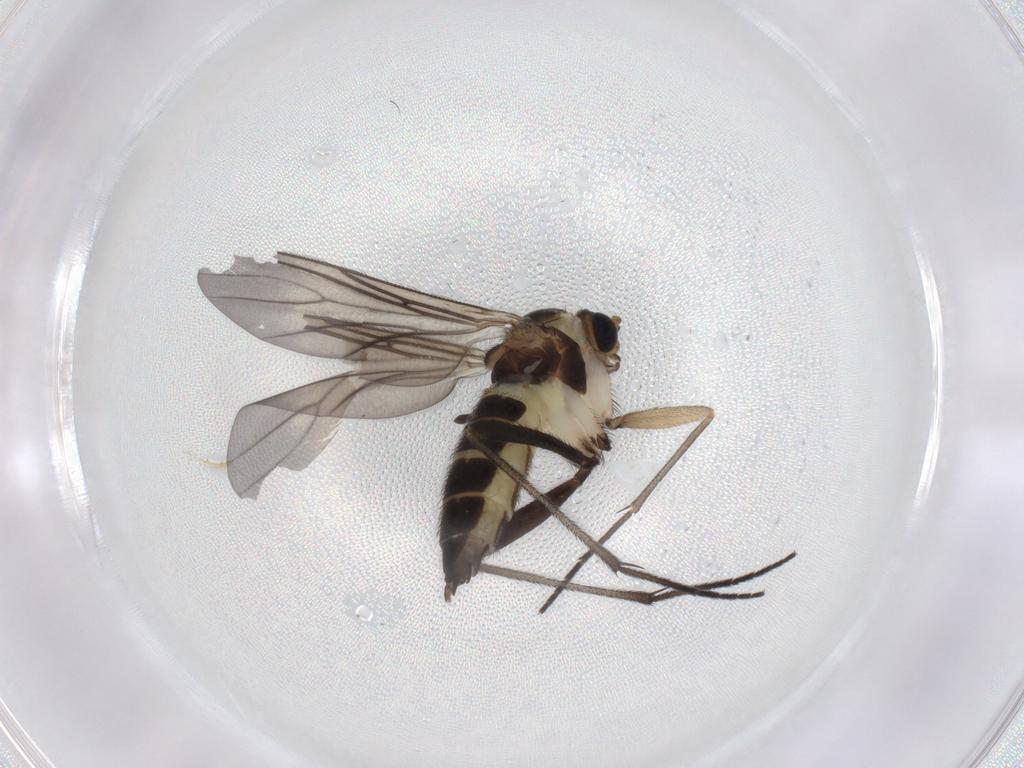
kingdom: Animalia
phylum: Arthropoda
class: Insecta
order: Diptera
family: Sciaridae
